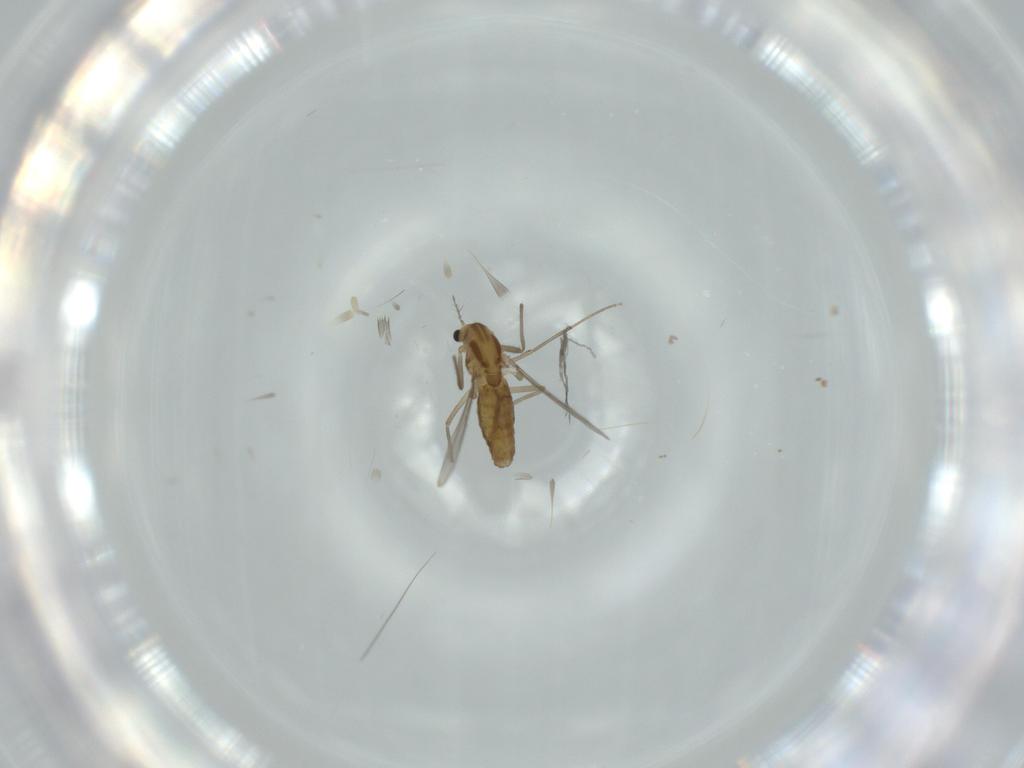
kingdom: Animalia
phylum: Arthropoda
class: Insecta
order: Diptera
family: Chironomidae
